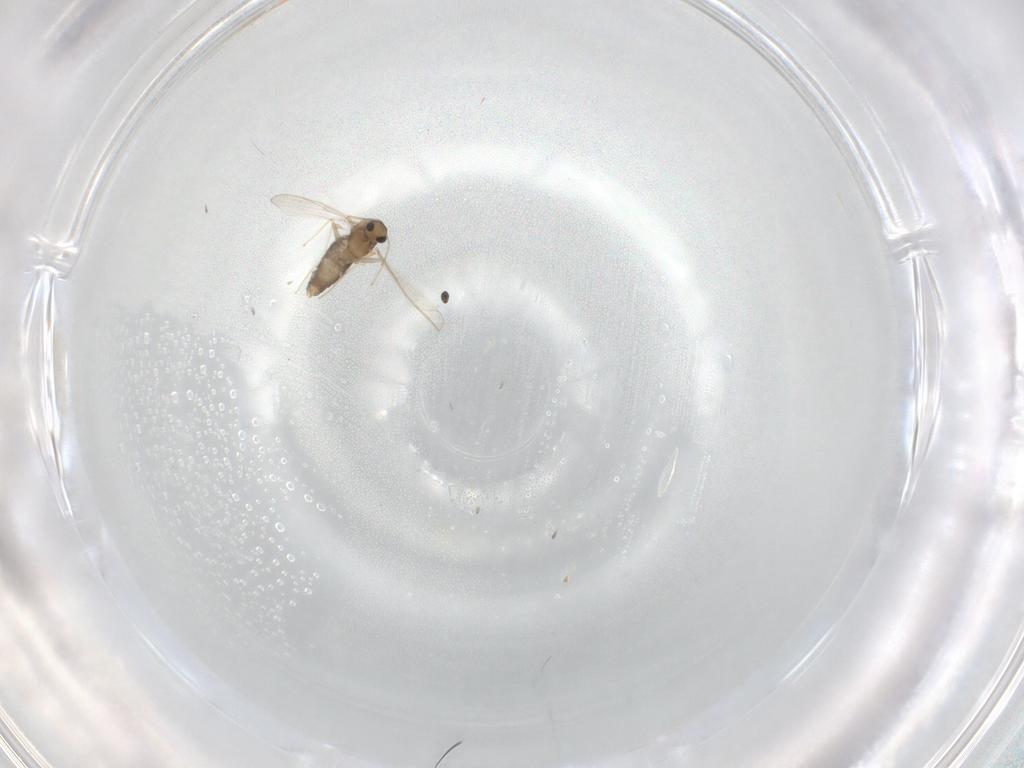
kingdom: Animalia
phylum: Arthropoda
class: Insecta
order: Diptera
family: Chironomidae
